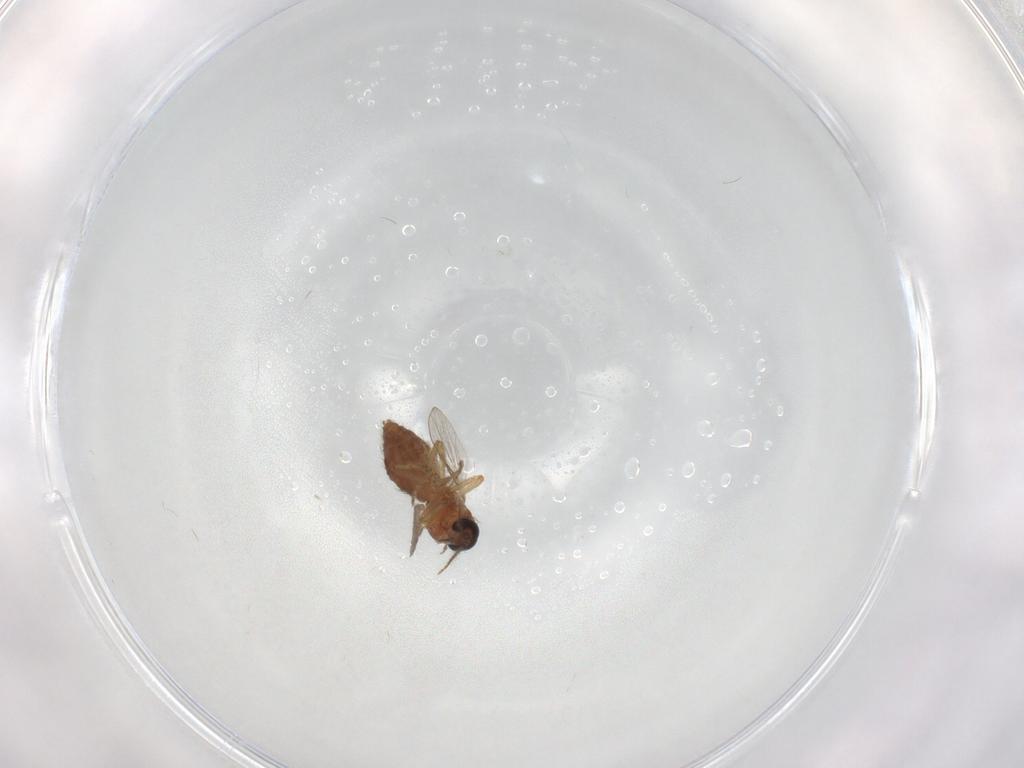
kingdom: Animalia
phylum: Arthropoda
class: Insecta
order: Diptera
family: Ceratopogonidae
